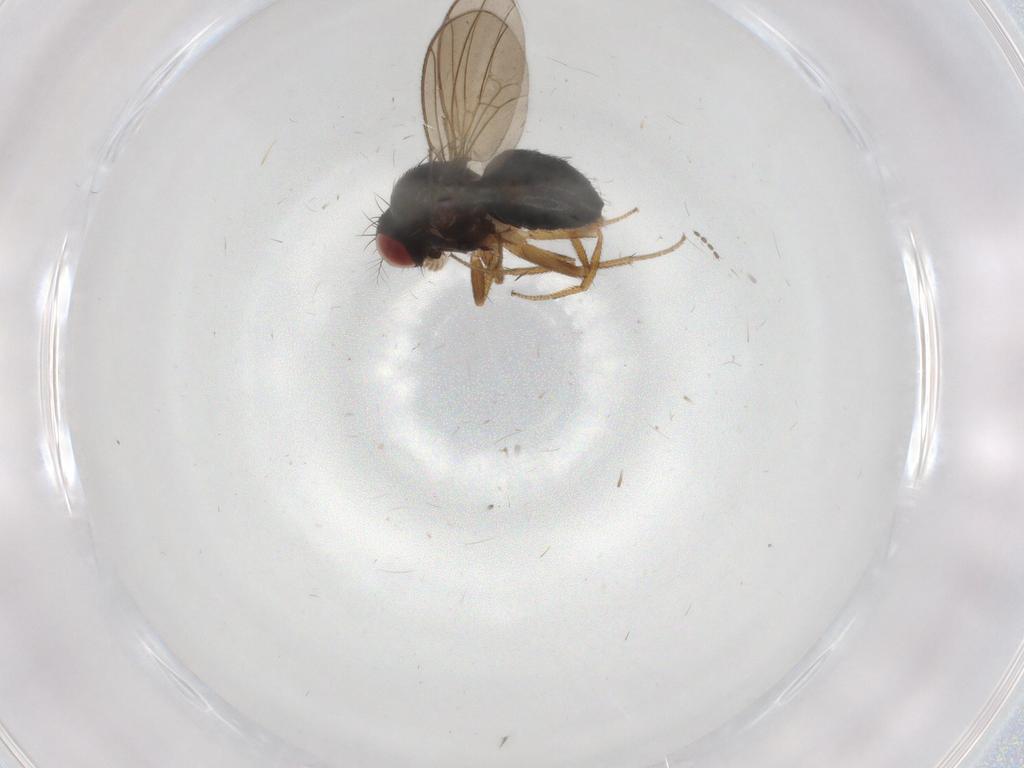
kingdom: Animalia
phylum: Arthropoda
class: Insecta
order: Diptera
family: Drosophilidae
